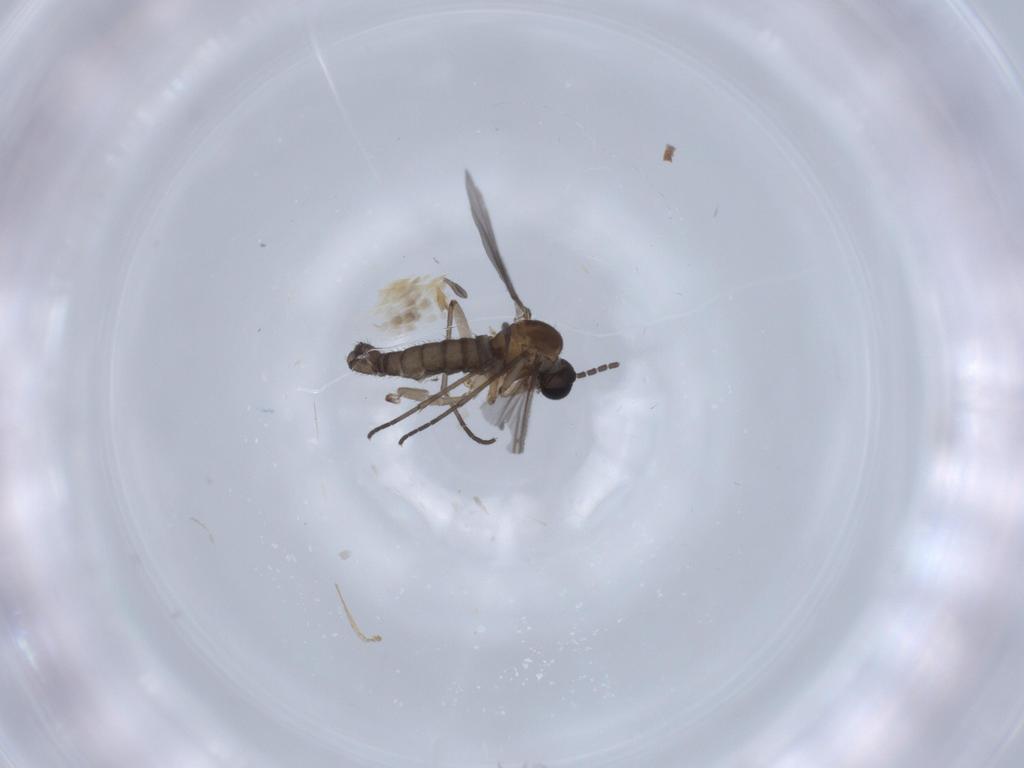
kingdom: Animalia
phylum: Arthropoda
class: Insecta
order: Diptera
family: Sciaridae
